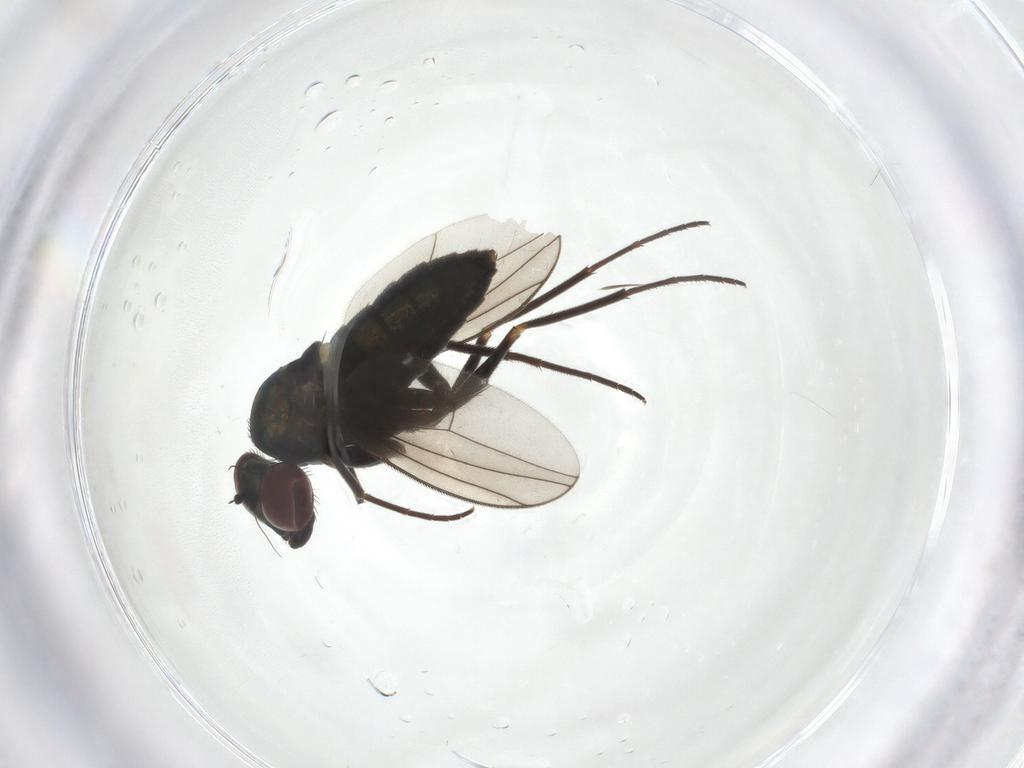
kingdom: Animalia
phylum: Arthropoda
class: Insecta
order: Diptera
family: Sciaridae
